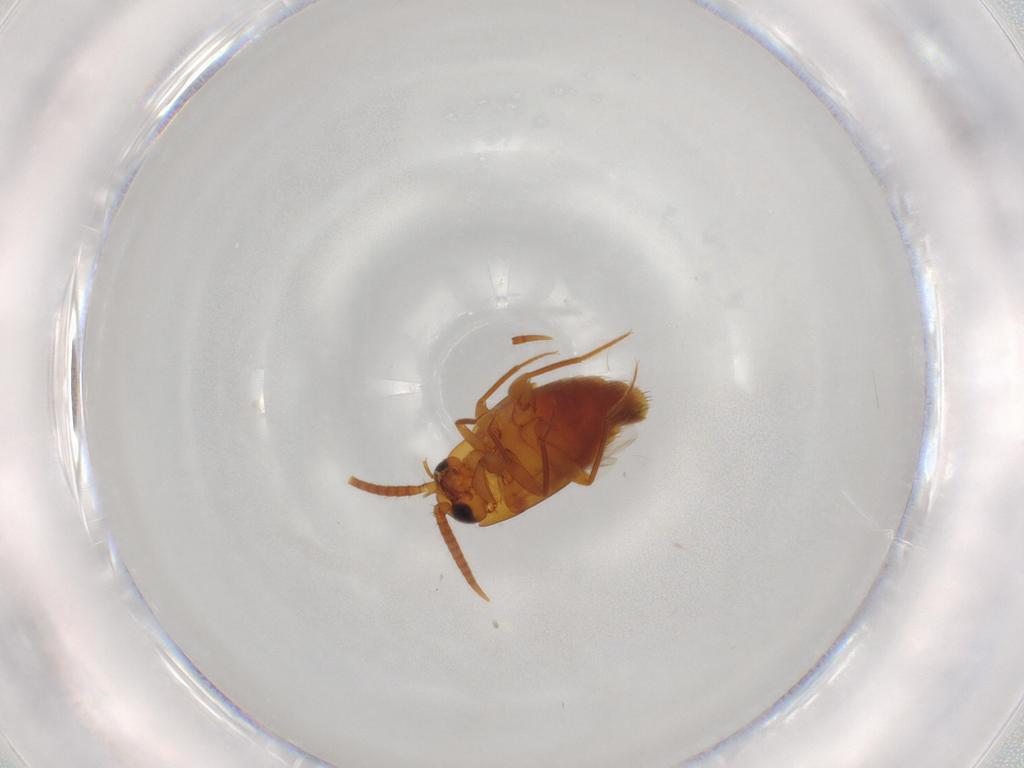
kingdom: Animalia
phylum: Arthropoda
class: Insecta
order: Coleoptera
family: Staphylinidae
